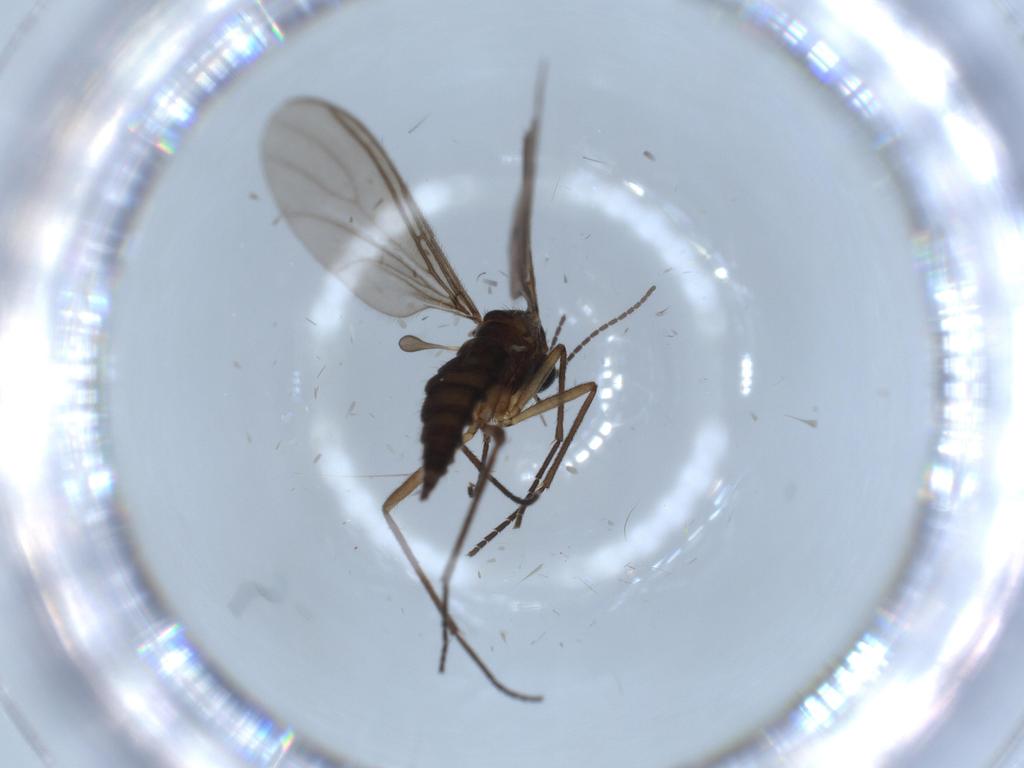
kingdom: Animalia
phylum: Arthropoda
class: Insecta
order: Diptera
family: Sciaridae
